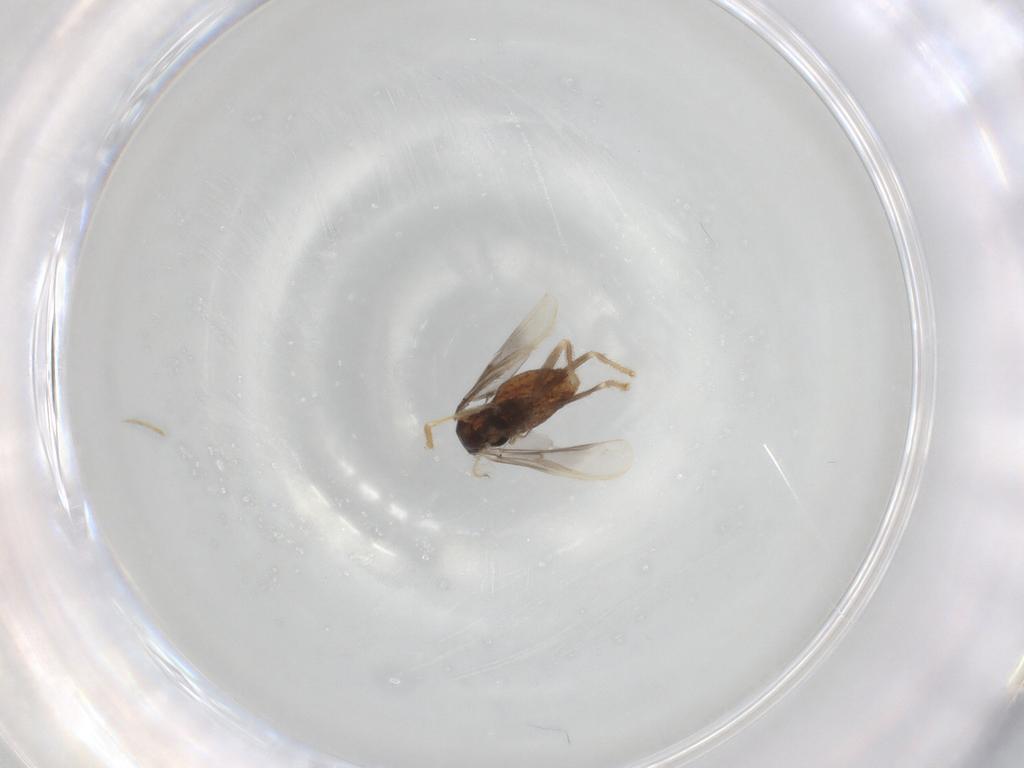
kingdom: Animalia
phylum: Arthropoda
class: Insecta
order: Diptera
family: Chironomidae
